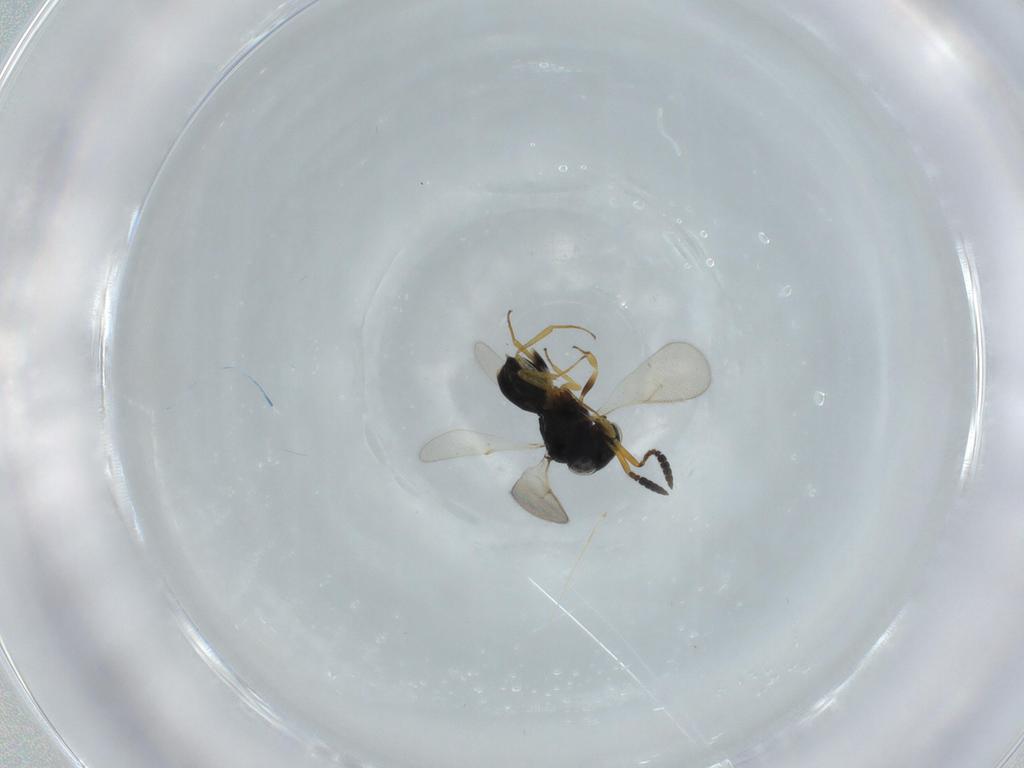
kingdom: Animalia
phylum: Arthropoda
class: Insecta
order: Hymenoptera
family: Scelionidae
